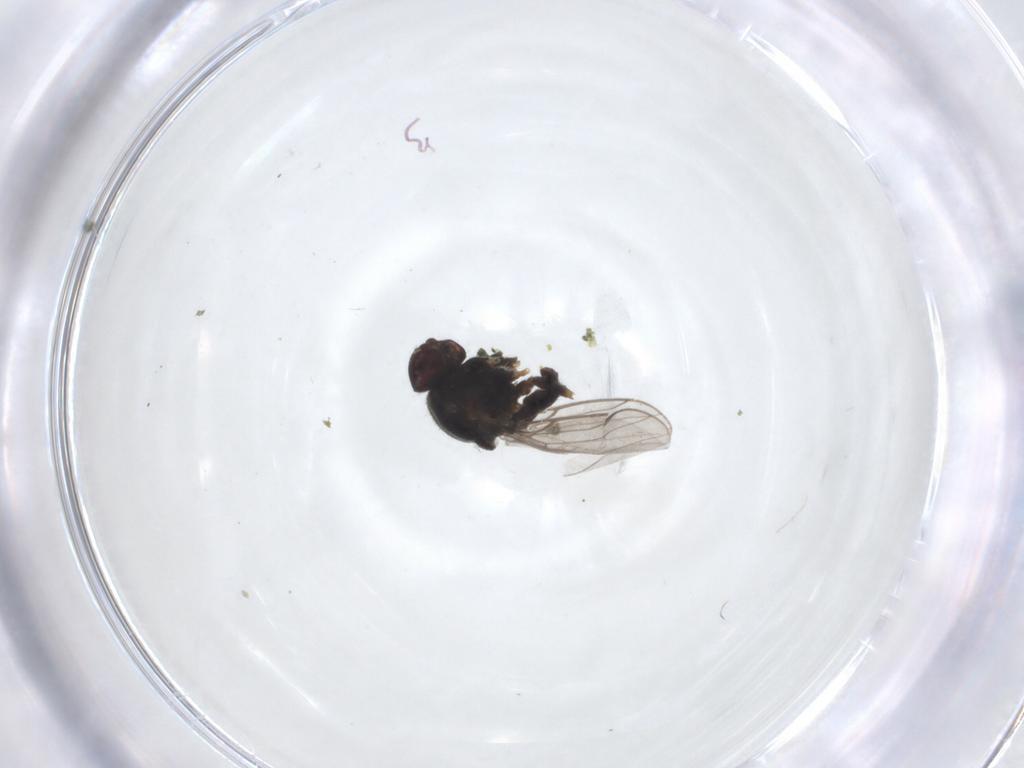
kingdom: Animalia
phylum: Arthropoda
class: Insecta
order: Diptera
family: Chloropidae
